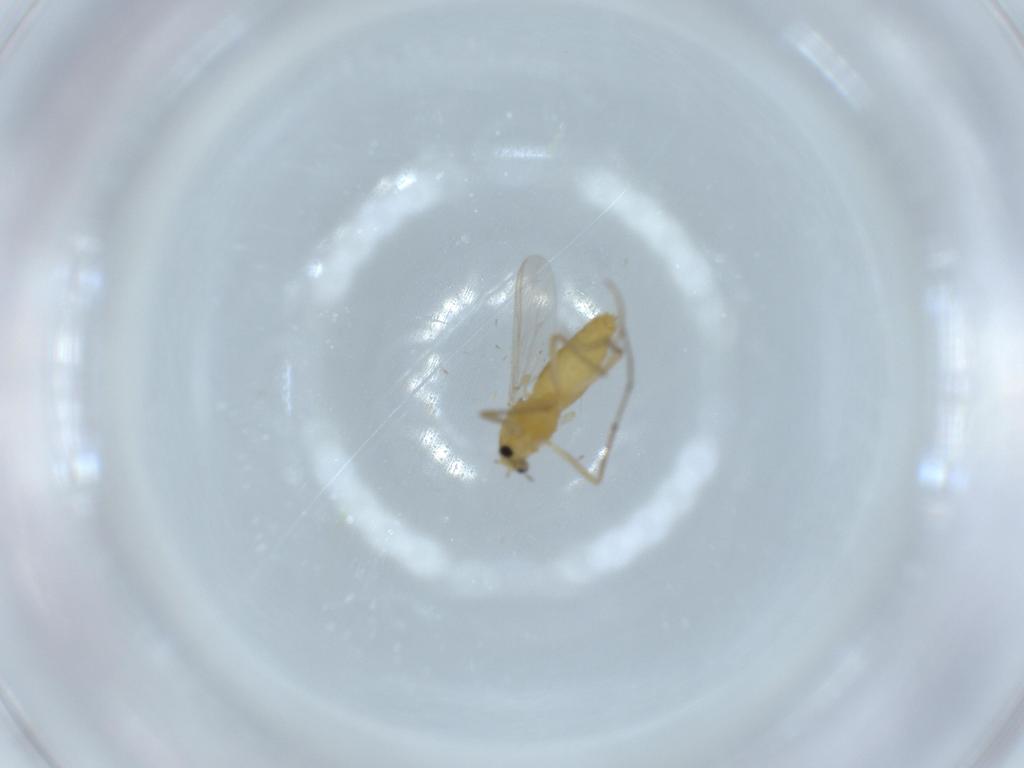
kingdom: Animalia
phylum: Arthropoda
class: Insecta
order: Diptera
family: Chironomidae
